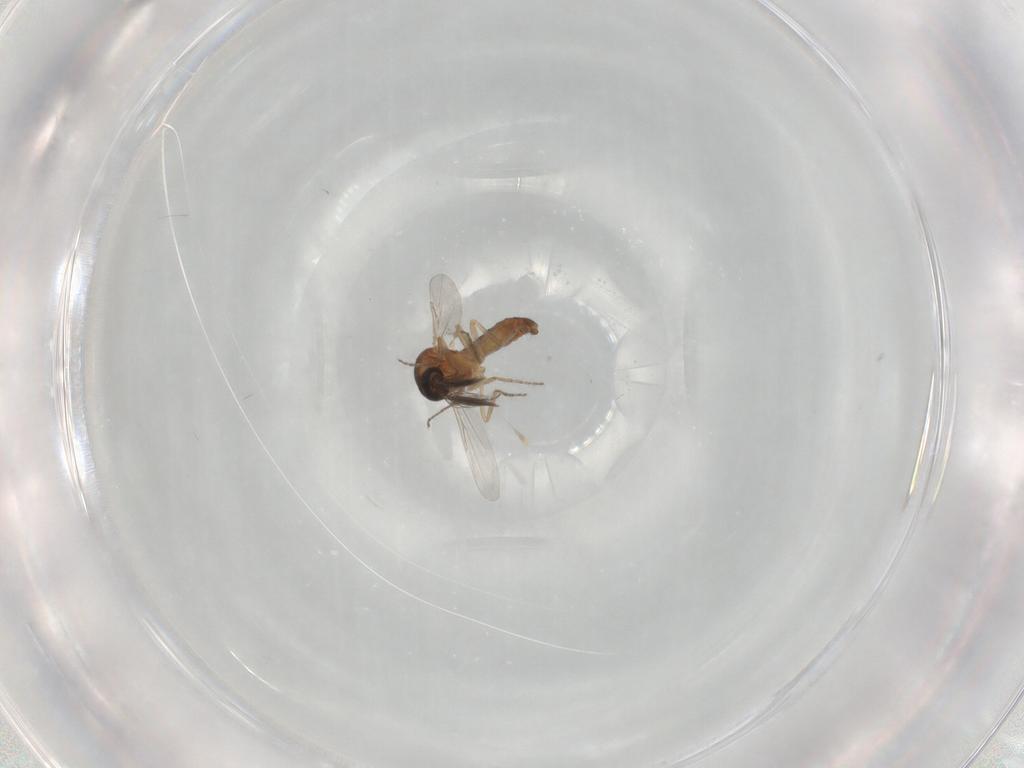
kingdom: Animalia
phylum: Arthropoda
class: Insecta
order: Diptera
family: Ceratopogonidae
